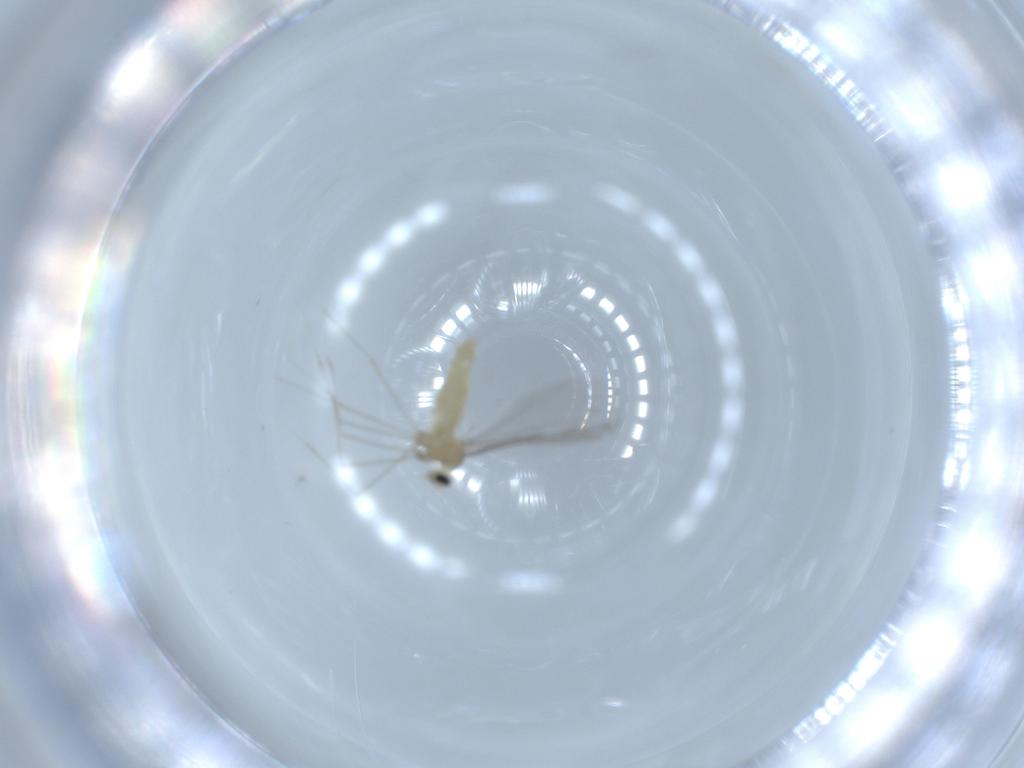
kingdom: Animalia
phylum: Arthropoda
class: Insecta
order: Diptera
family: Cecidomyiidae
